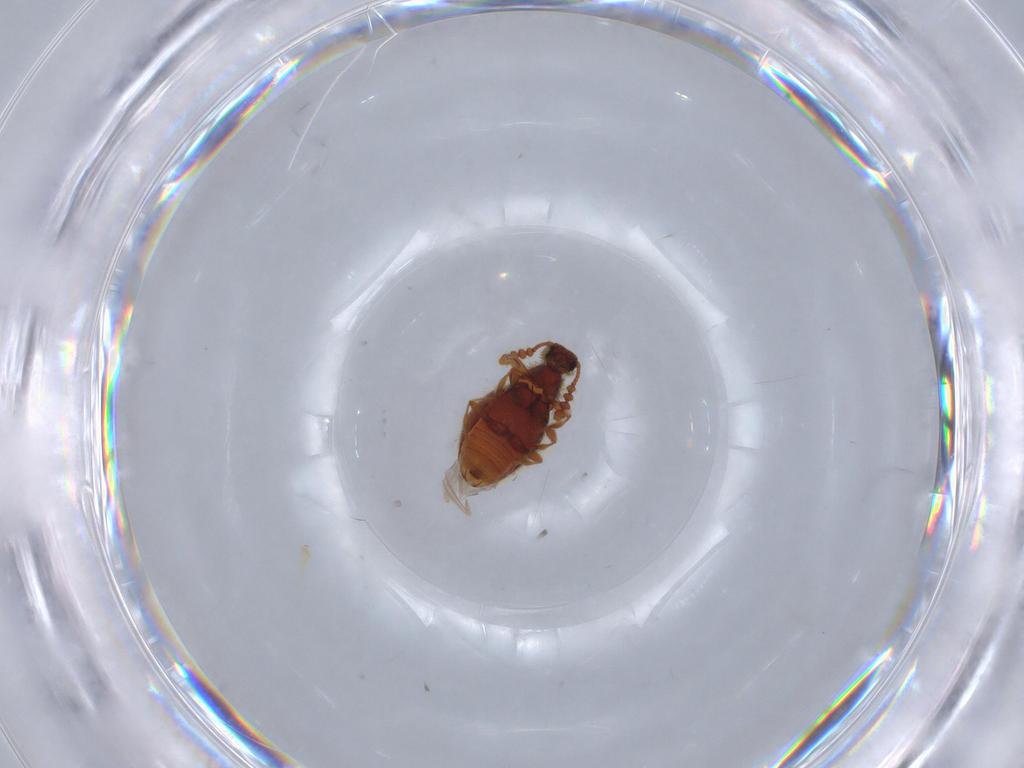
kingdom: Animalia
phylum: Arthropoda
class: Insecta
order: Coleoptera
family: Staphylinidae
